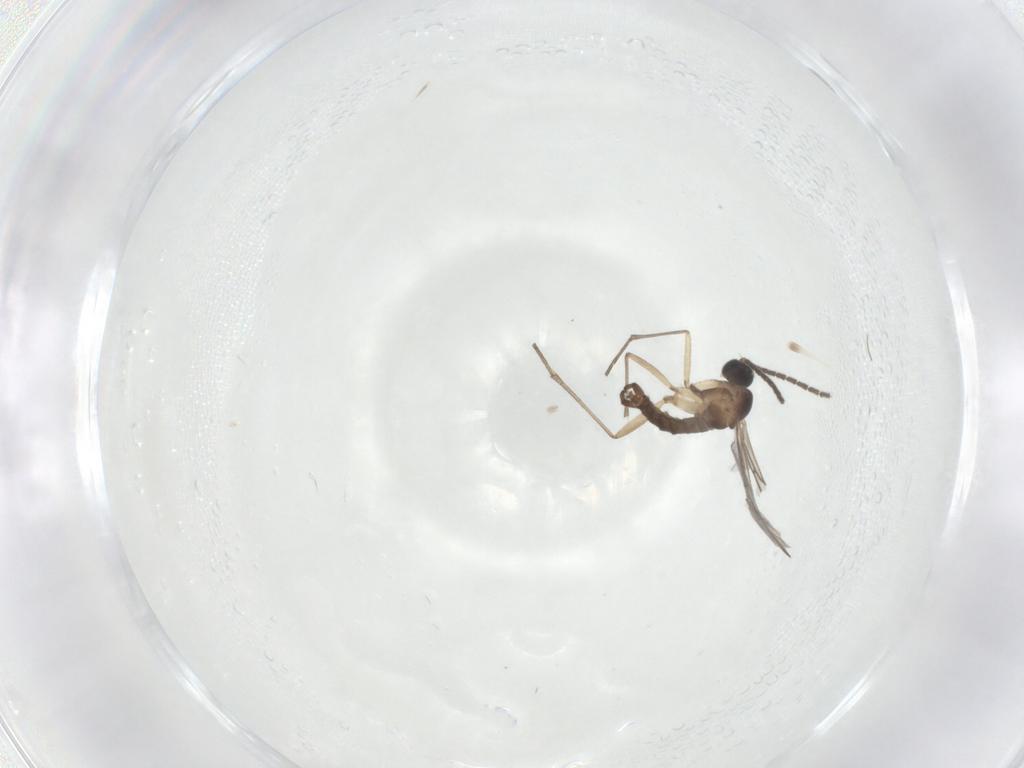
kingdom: Animalia
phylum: Arthropoda
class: Insecta
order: Diptera
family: Sciaridae
